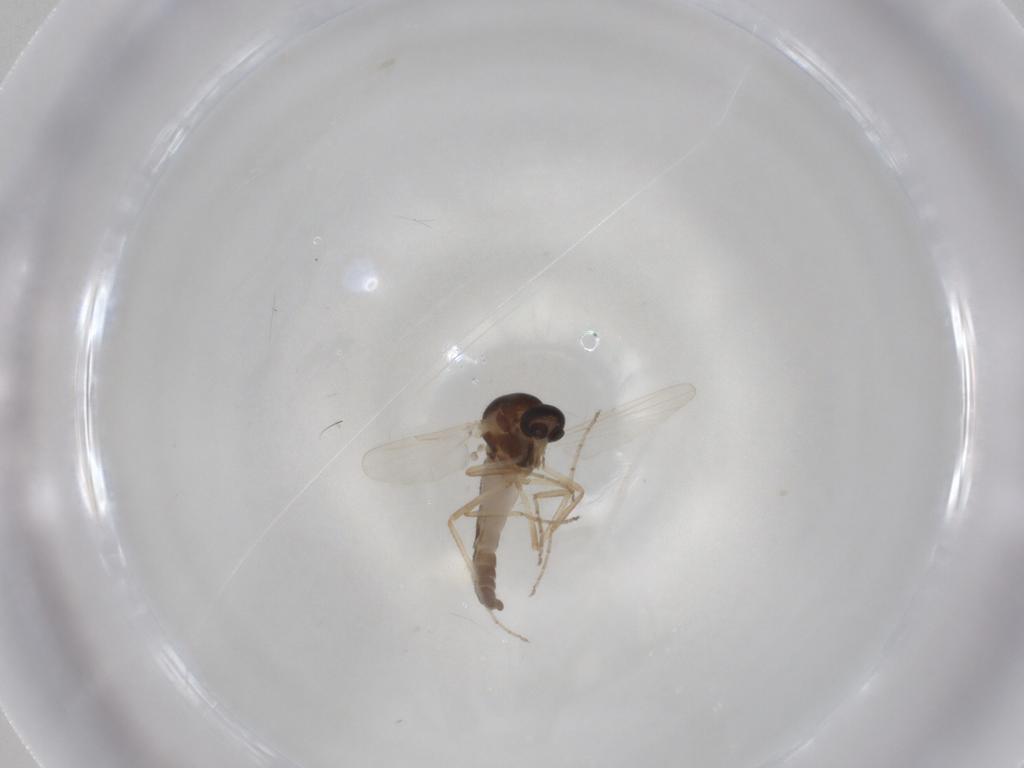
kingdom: Animalia
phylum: Arthropoda
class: Insecta
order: Diptera
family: Ceratopogonidae
